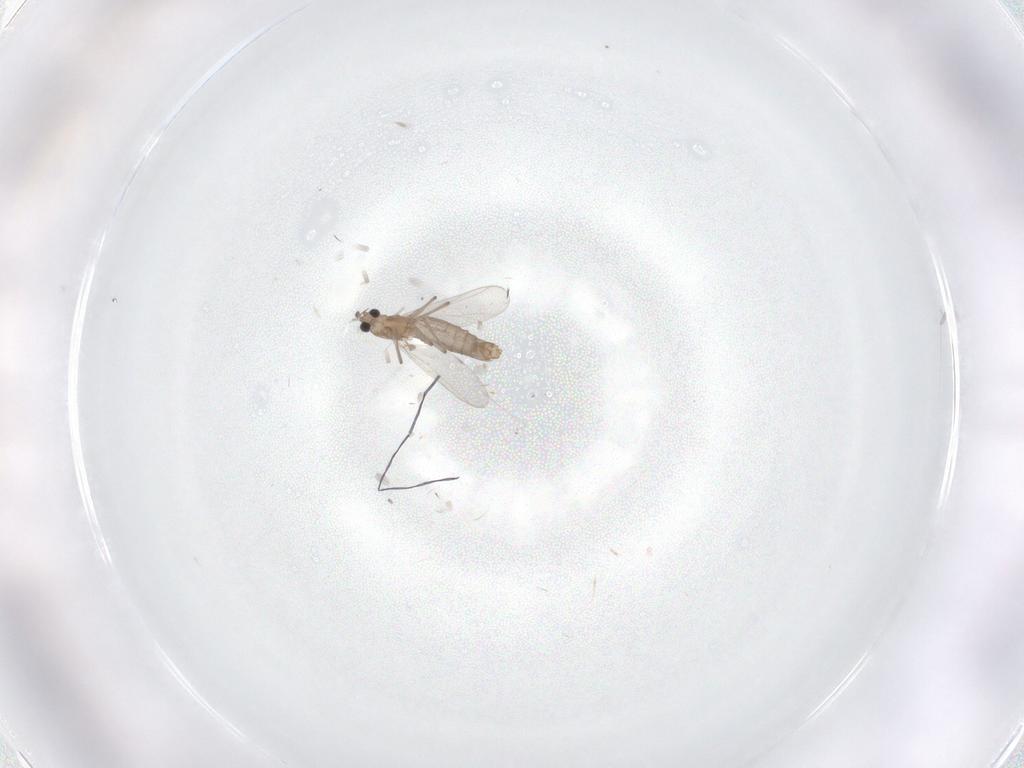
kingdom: Animalia
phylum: Arthropoda
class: Insecta
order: Diptera
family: Chironomidae
